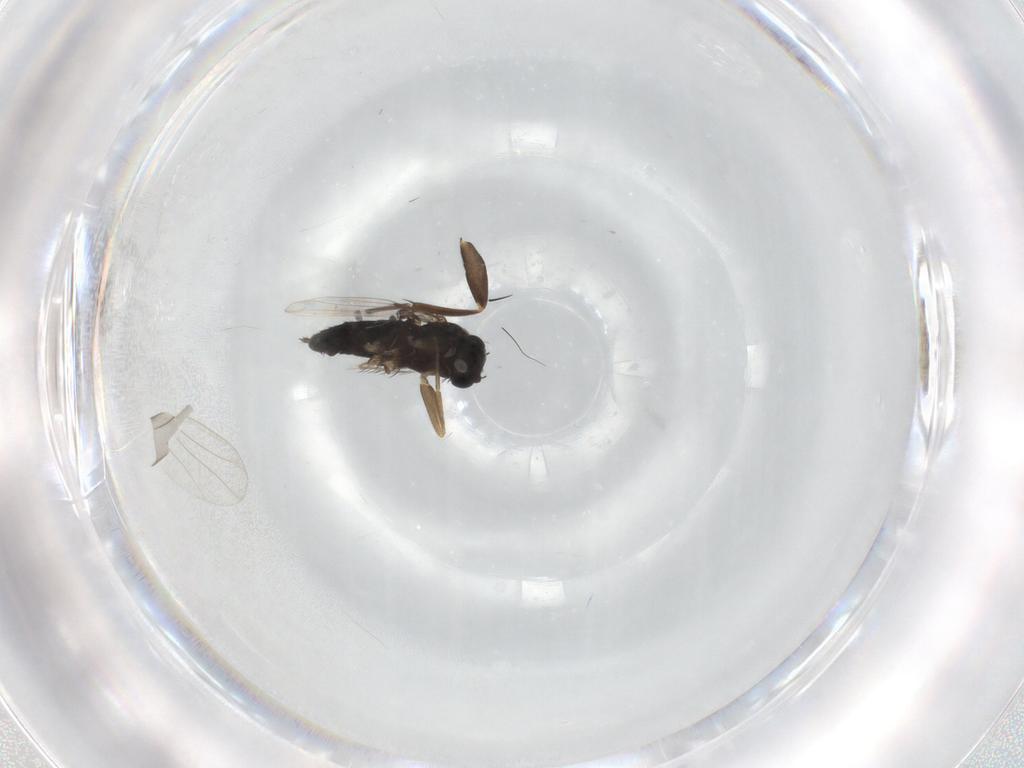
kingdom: Animalia
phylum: Arthropoda
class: Insecta
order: Diptera
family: Phoridae
